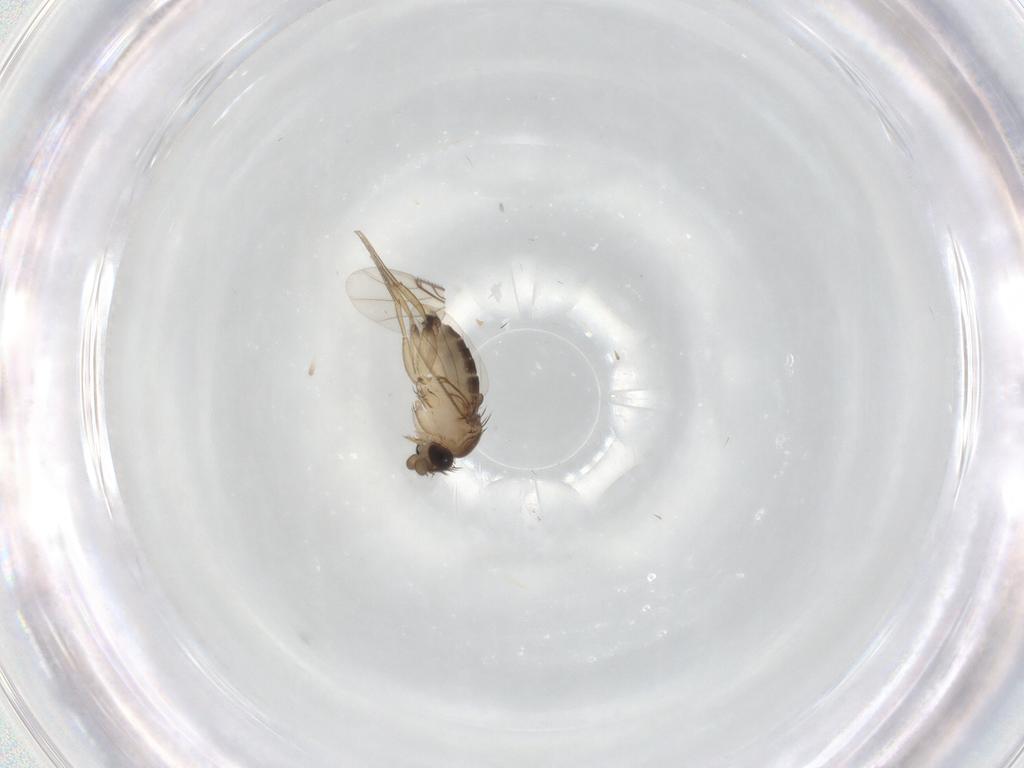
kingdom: Animalia
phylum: Arthropoda
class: Insecta
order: Diptera
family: Phoridae
